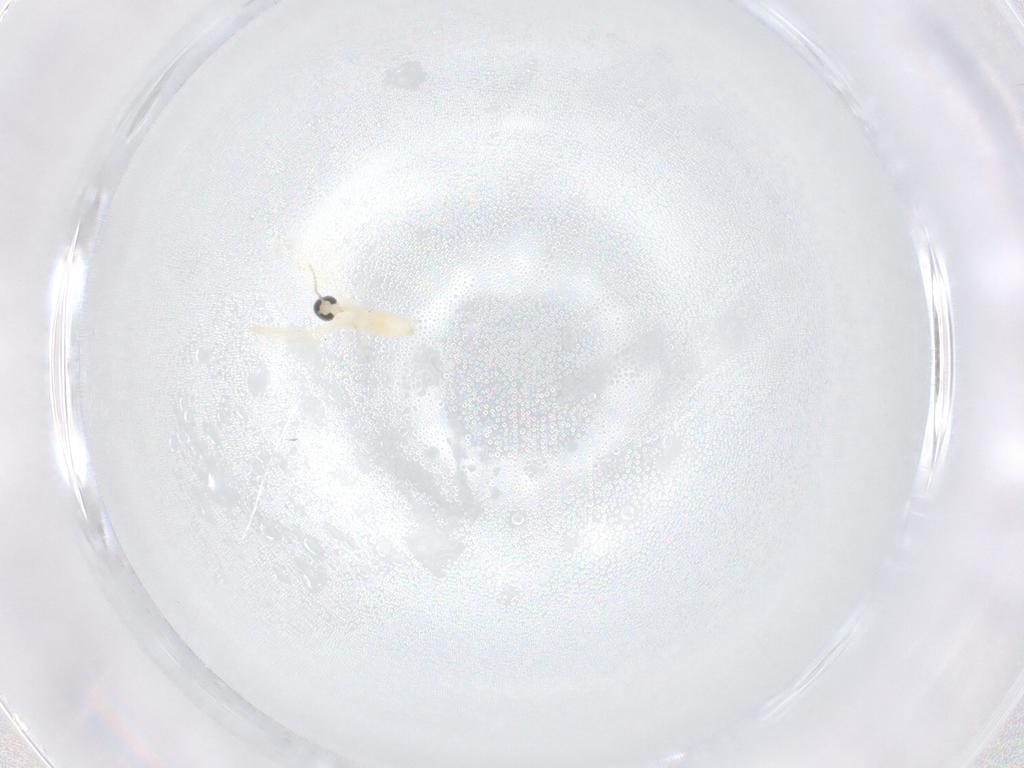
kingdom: Animalia
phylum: Arthropoda
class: Insecta
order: Diptera
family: Cecidomyiidae
